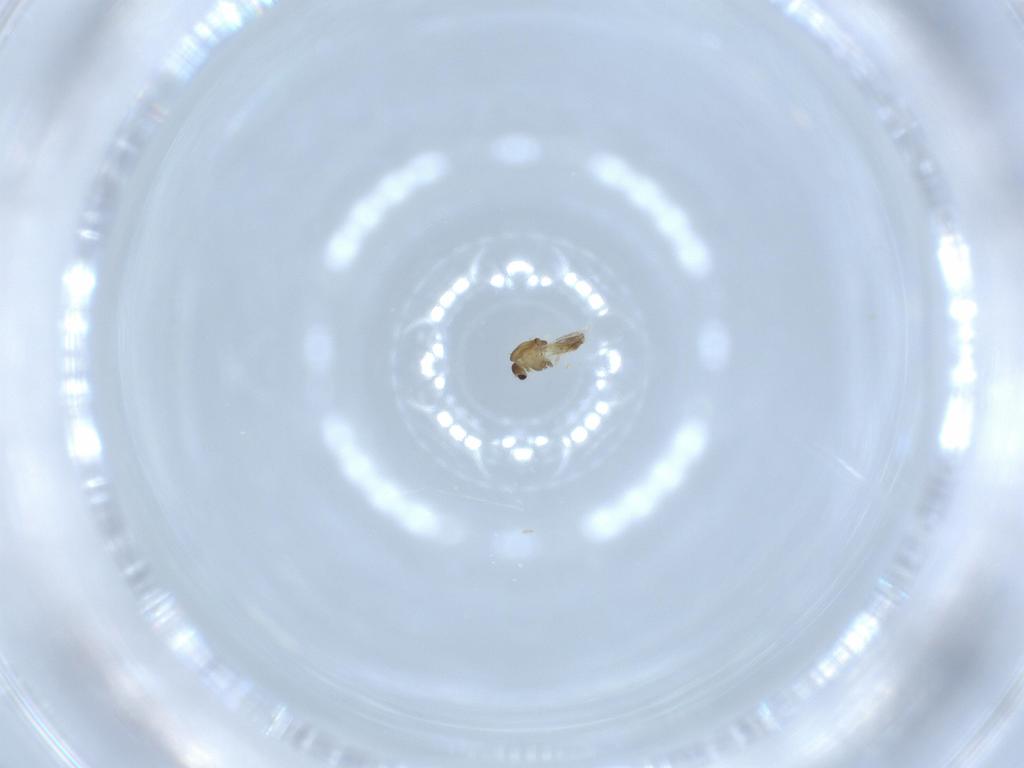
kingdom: Animalia
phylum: Arthropoda
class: Insecta
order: Diptera
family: Chironomidae
